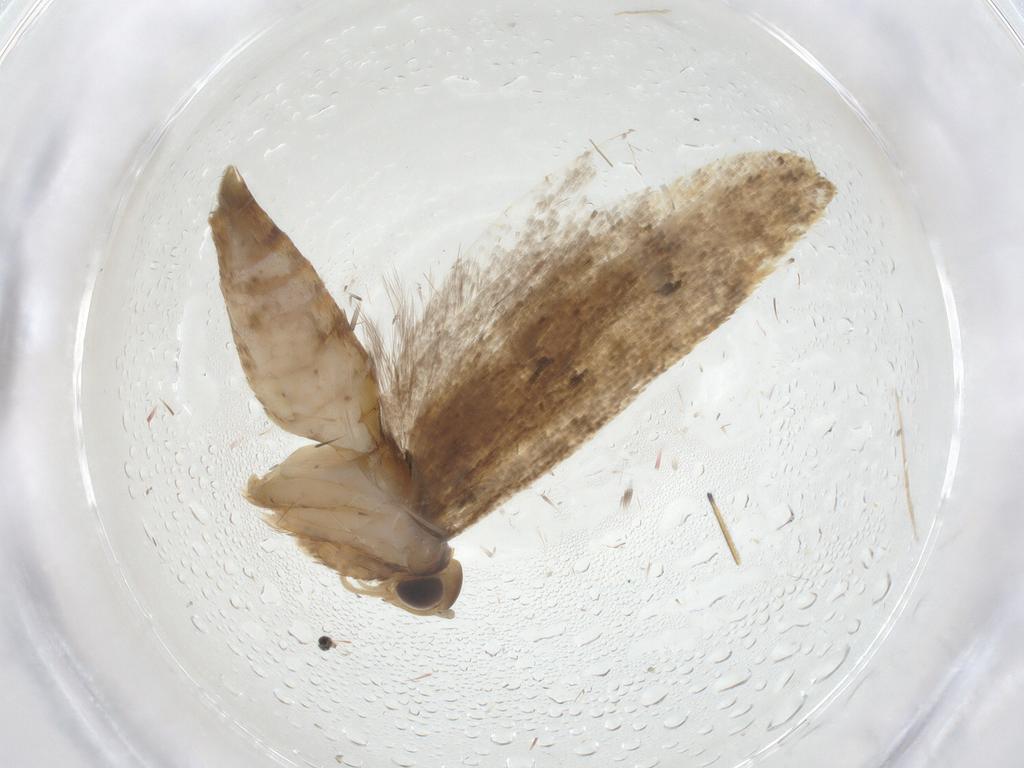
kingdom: Animalia
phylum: Arthropoda
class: Insecta
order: Lepidoptera
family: Oecophoridae
